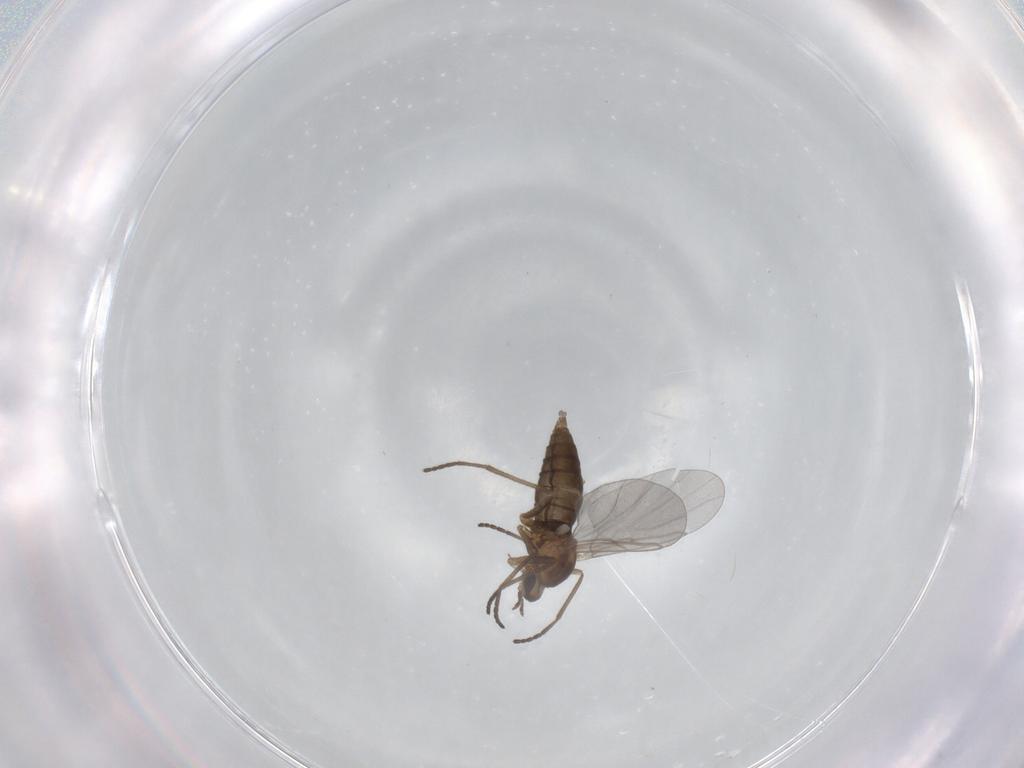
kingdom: Animalia
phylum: Arthropoda
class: Insecta
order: Diptera
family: Cecidomyiidae
